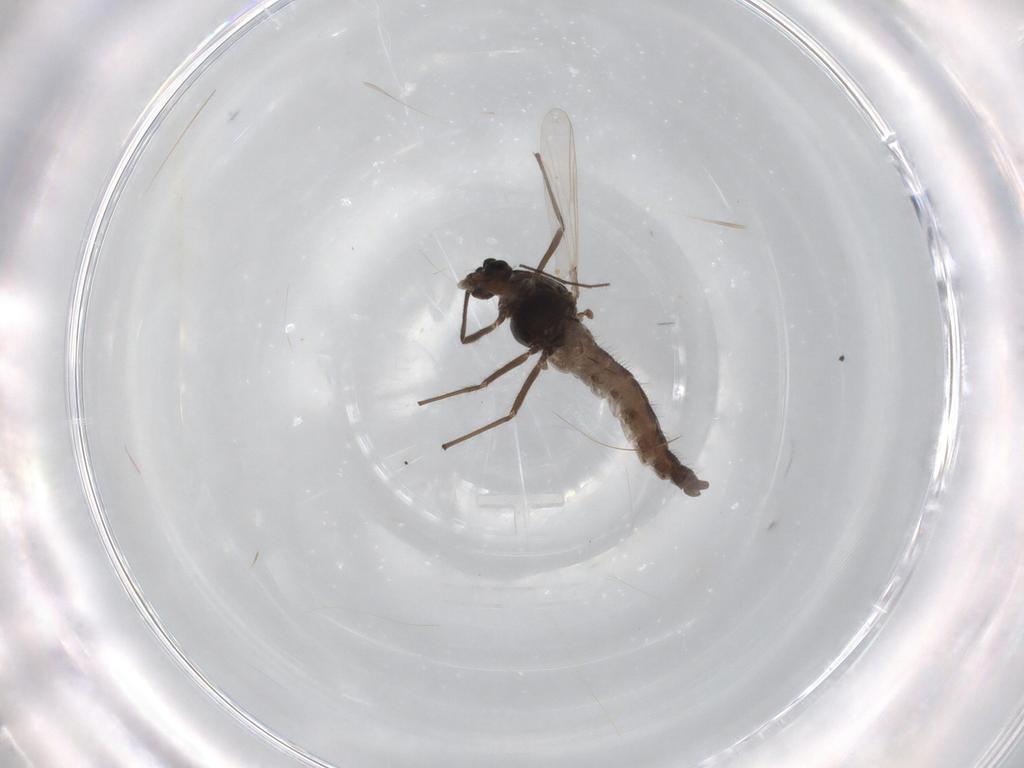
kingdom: Animalia
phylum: Arthropoda
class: Insecta
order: Diptera
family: Chironomidae
